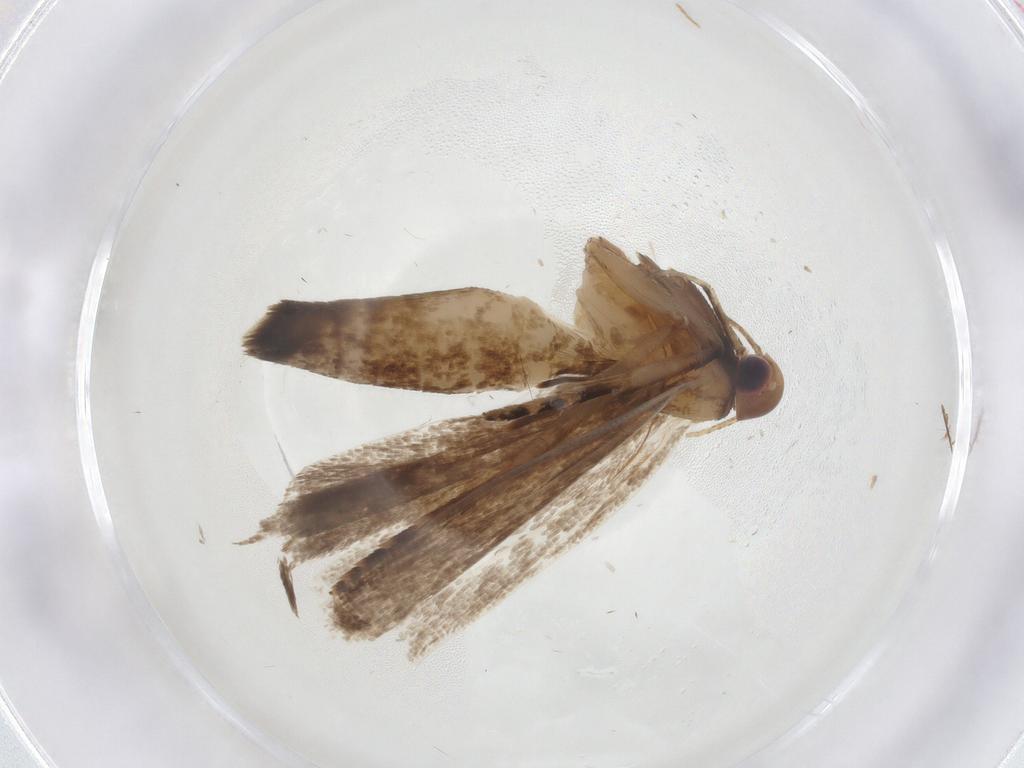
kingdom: Animalia
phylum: Arthropoda
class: Insecta
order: Lepidoptera
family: Gelechiidae
